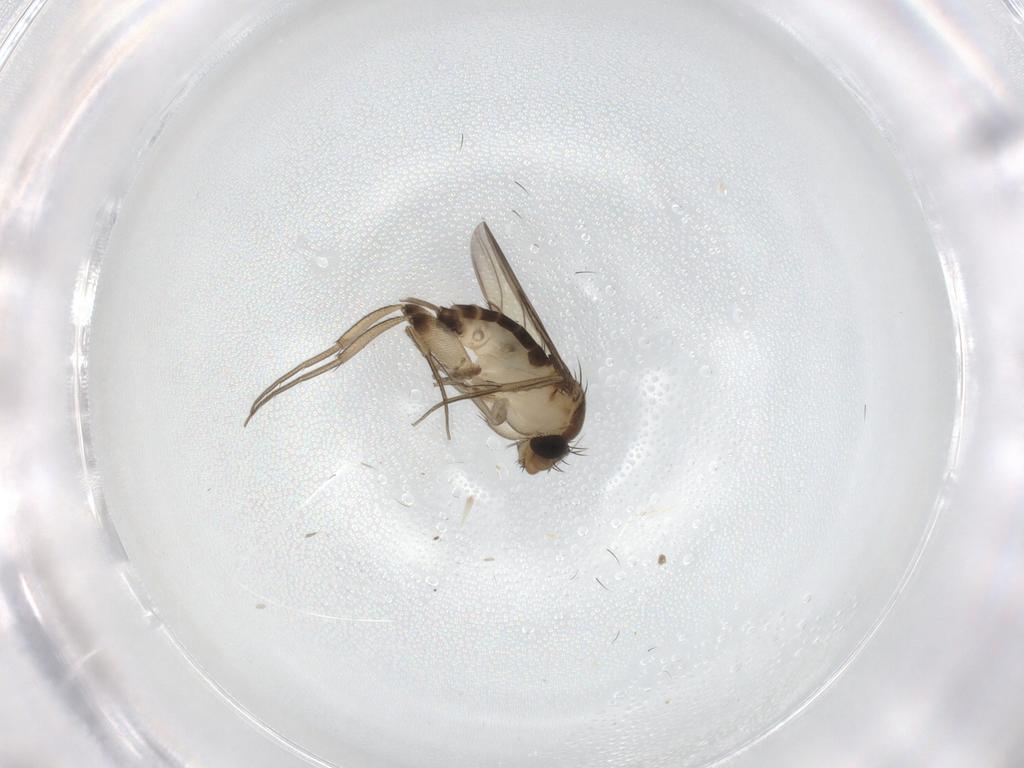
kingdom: Animalia
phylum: Arthropoda
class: Insecta
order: Diptera
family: Phoridae
